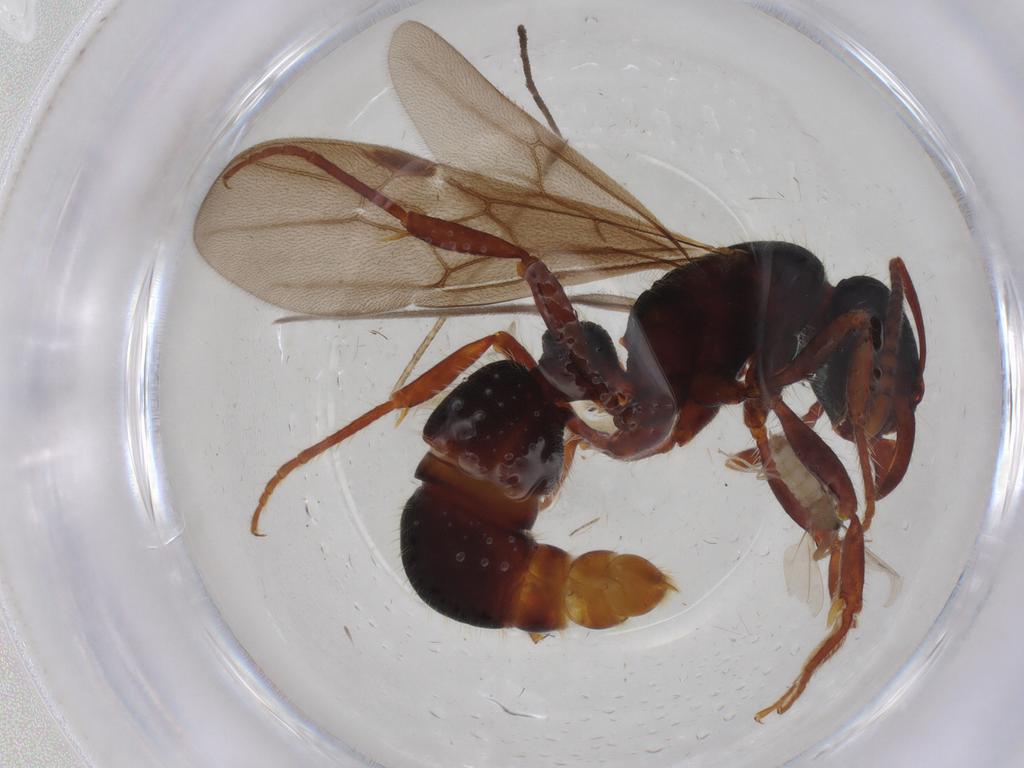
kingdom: Animalia
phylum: Arthropoda
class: Insecta
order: Diptera
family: Cecidomyiidae
